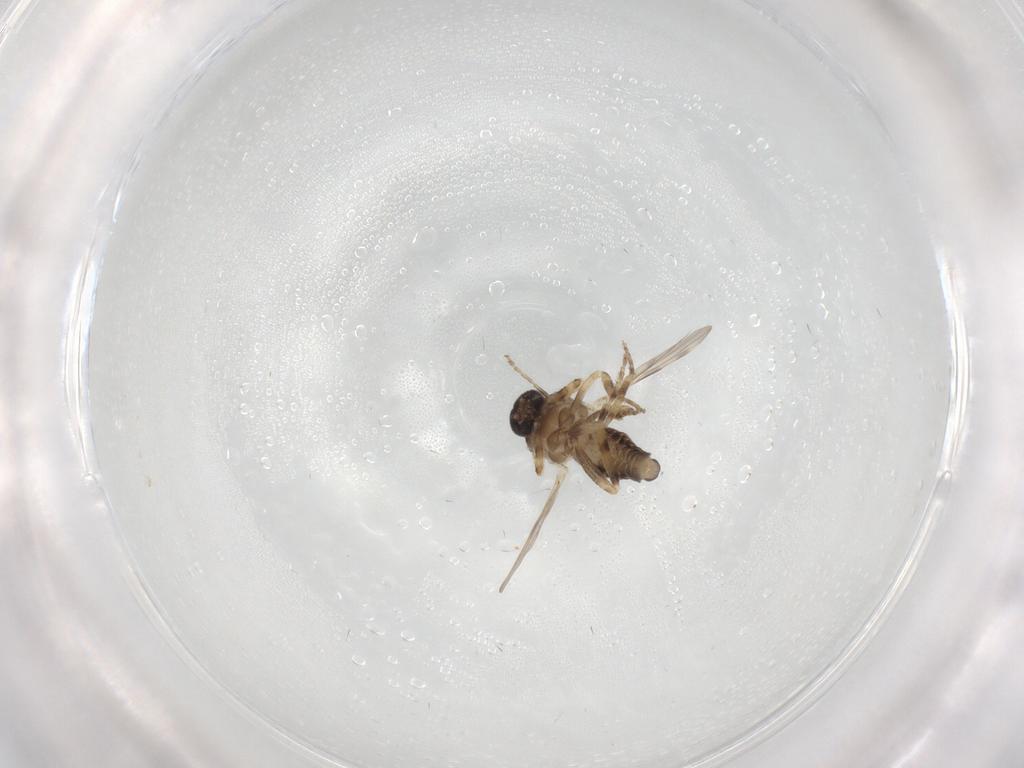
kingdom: Animalia
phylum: Arthropoda
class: Insecta
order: Diptera
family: Ceratopogonidae
